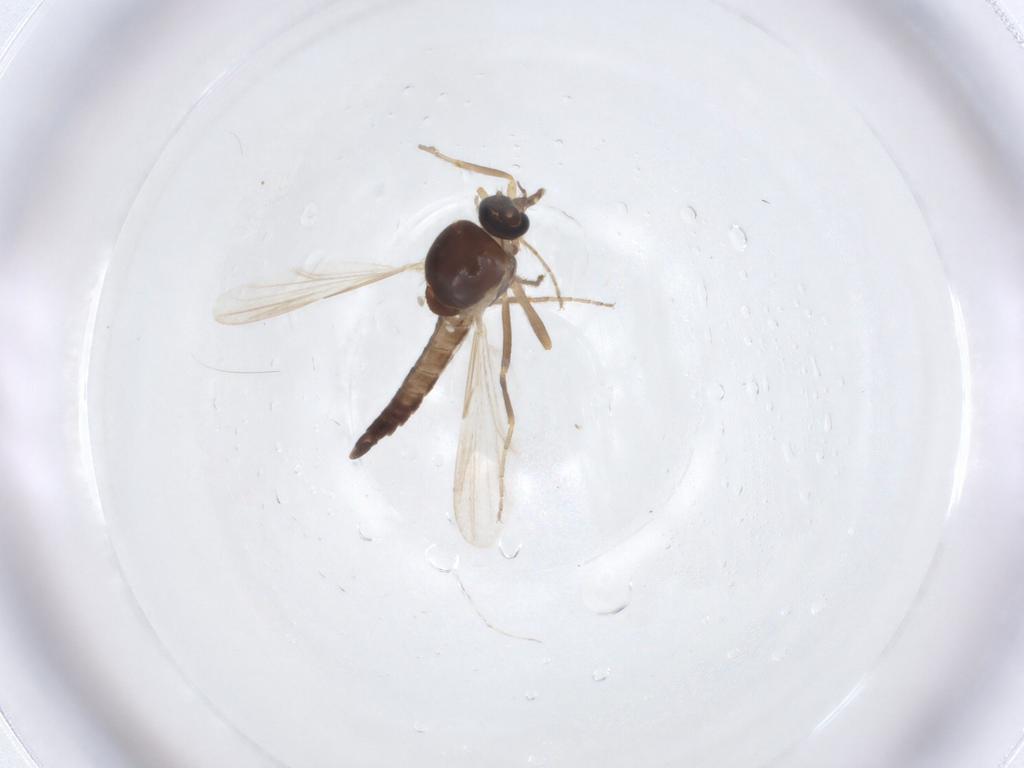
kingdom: Animalia
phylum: Arthropoda
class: Insecta
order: Diptera
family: Ceratopogonidae
